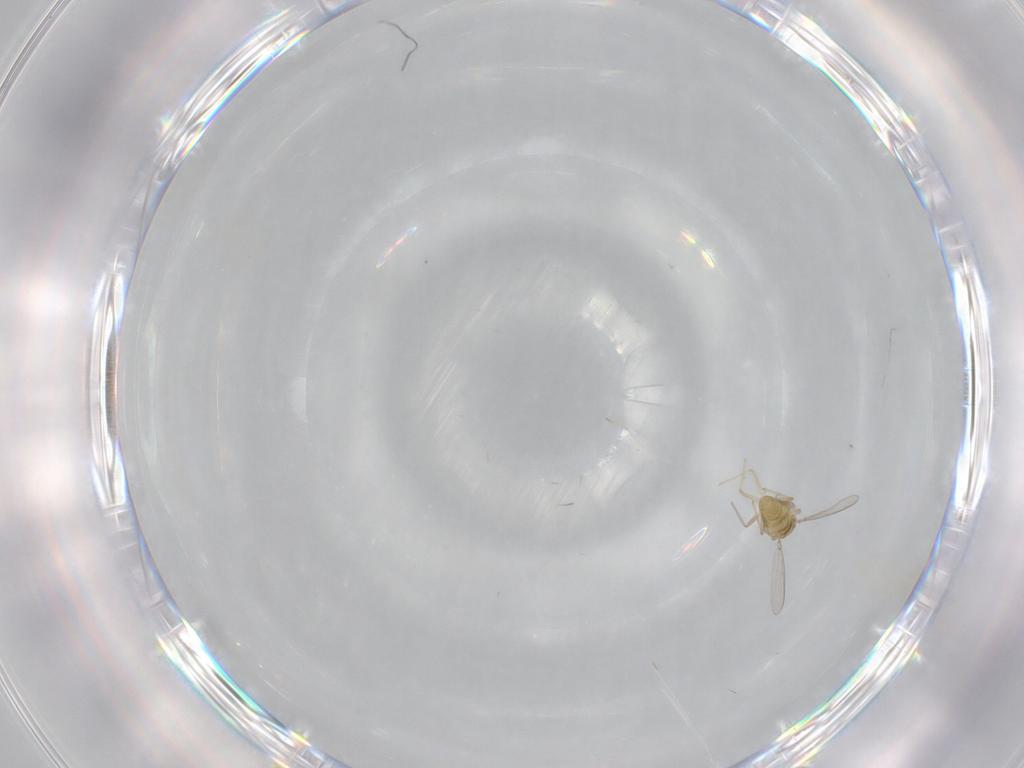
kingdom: Animalia
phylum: Arthropoda
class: Insecta
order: Diptera
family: Chironomidae
